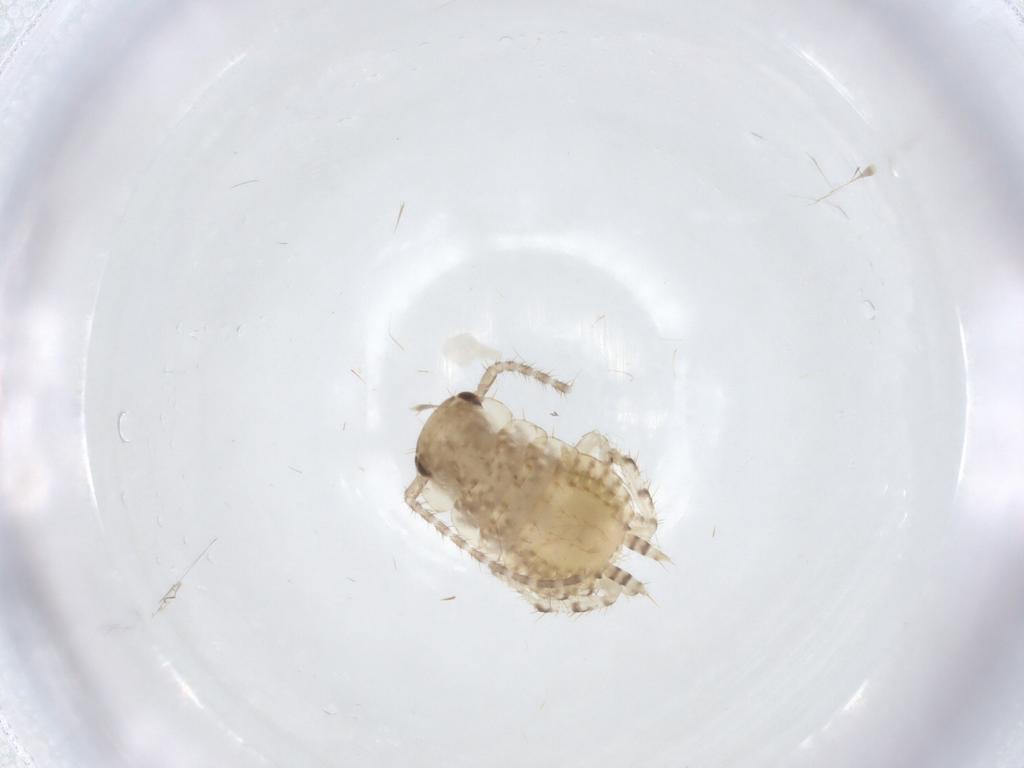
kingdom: Animalia
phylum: Arthropoda
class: Insecta
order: Blattodea
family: Ectobiidae
